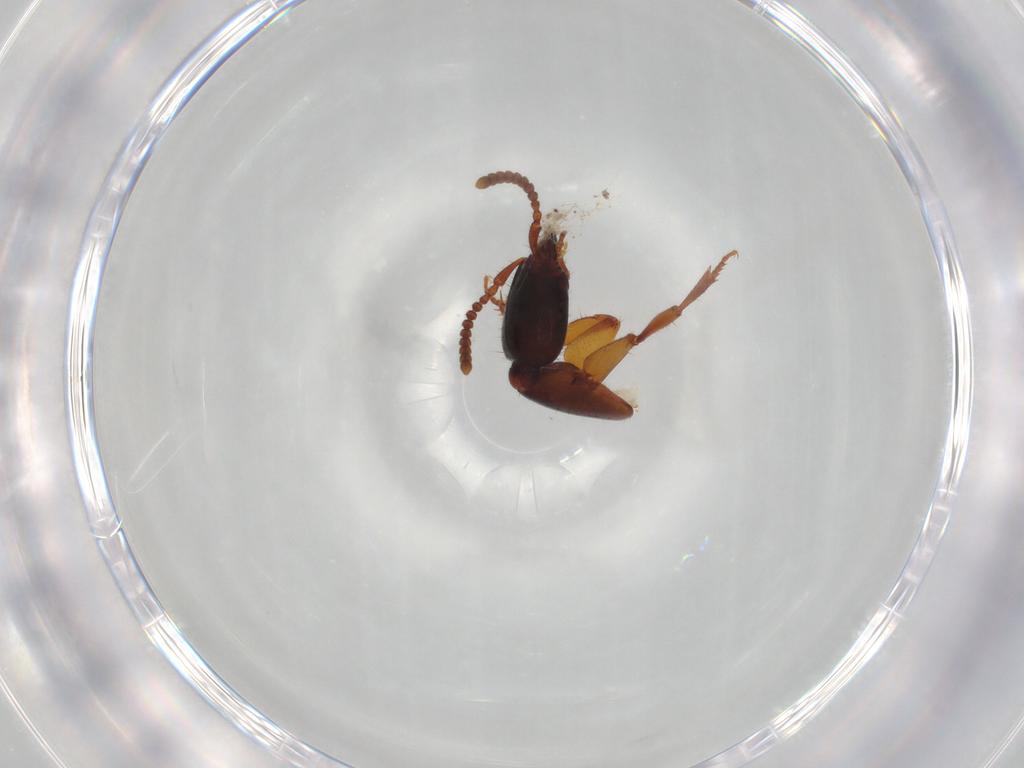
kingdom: Animalia
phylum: Arthropoda
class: Insecta
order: Coleoptera
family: Staphylinidae
